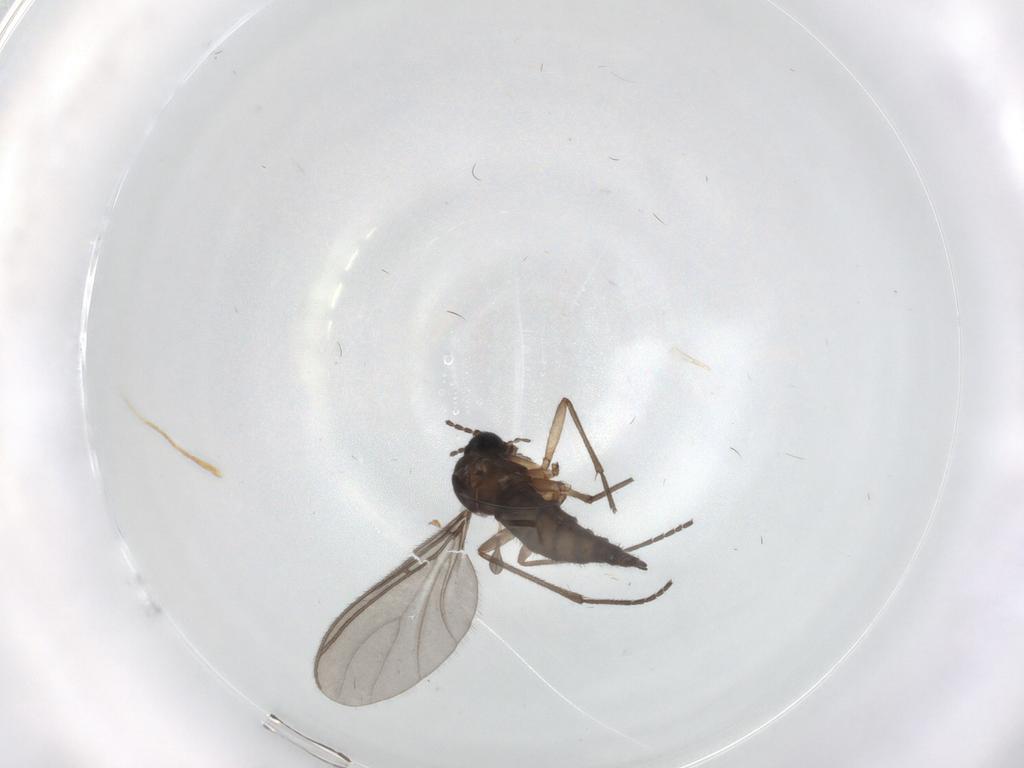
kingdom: Animalia
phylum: Arthropoda
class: Insecta
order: Diptera
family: Sciaridae
